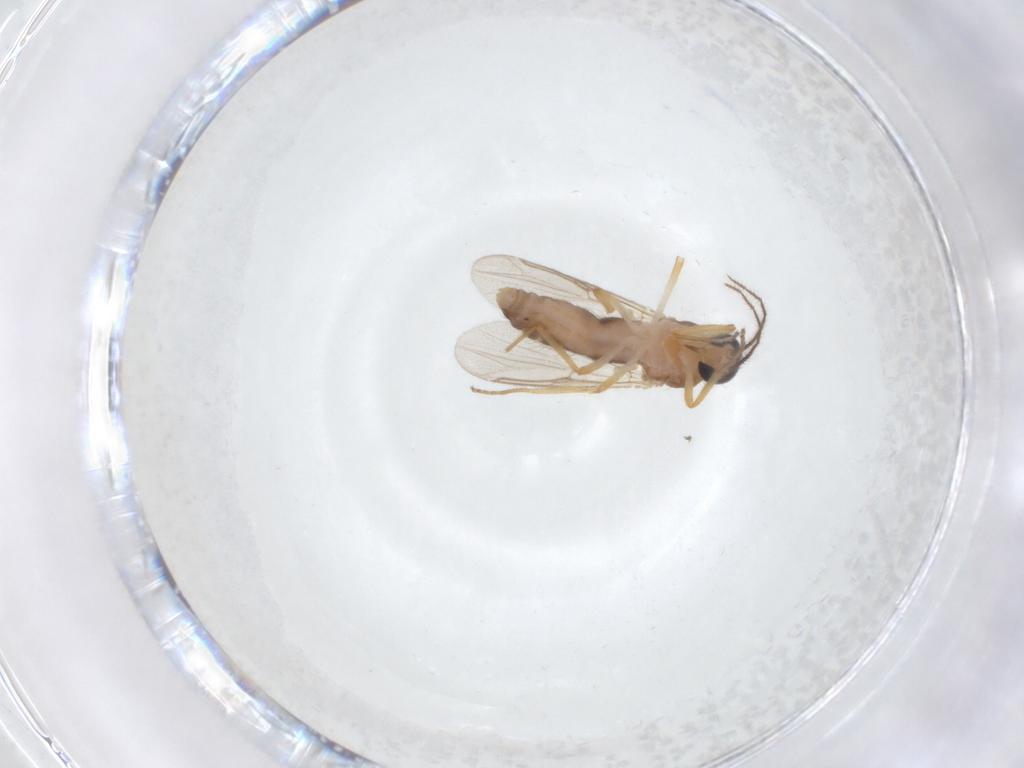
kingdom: Animalia
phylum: Arthropoda
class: Insecta
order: Diptera
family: Ceratopogonidae
